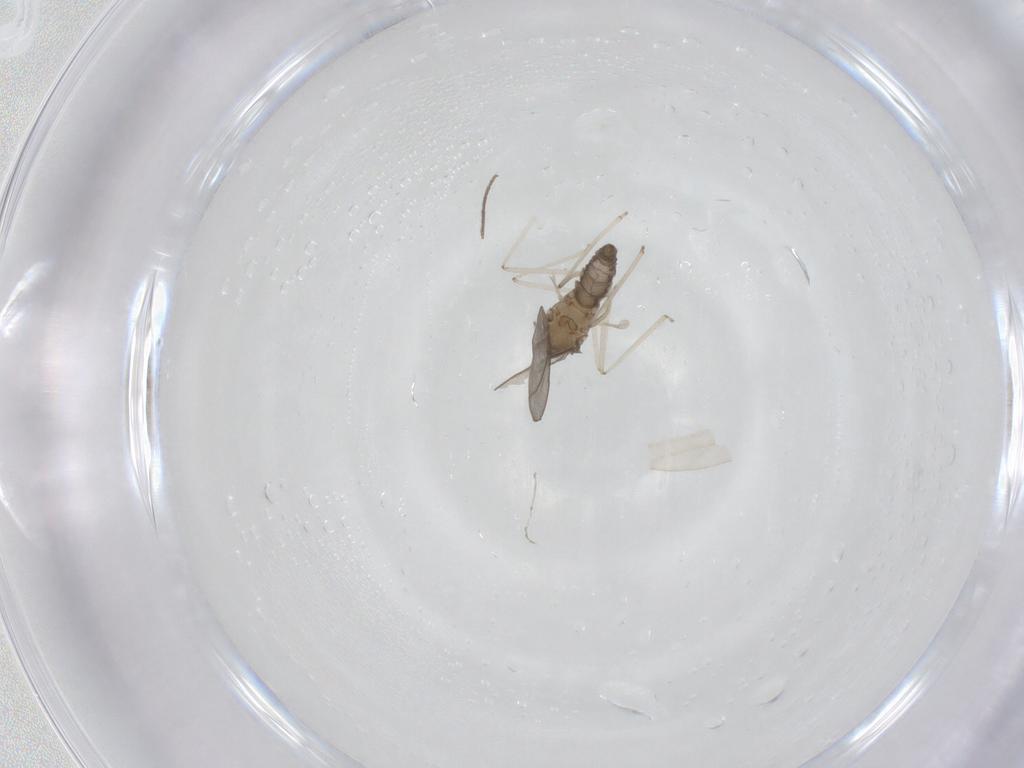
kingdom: Animalia
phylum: Arthropoda
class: Insecta
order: Diptera
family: Chironomidae
